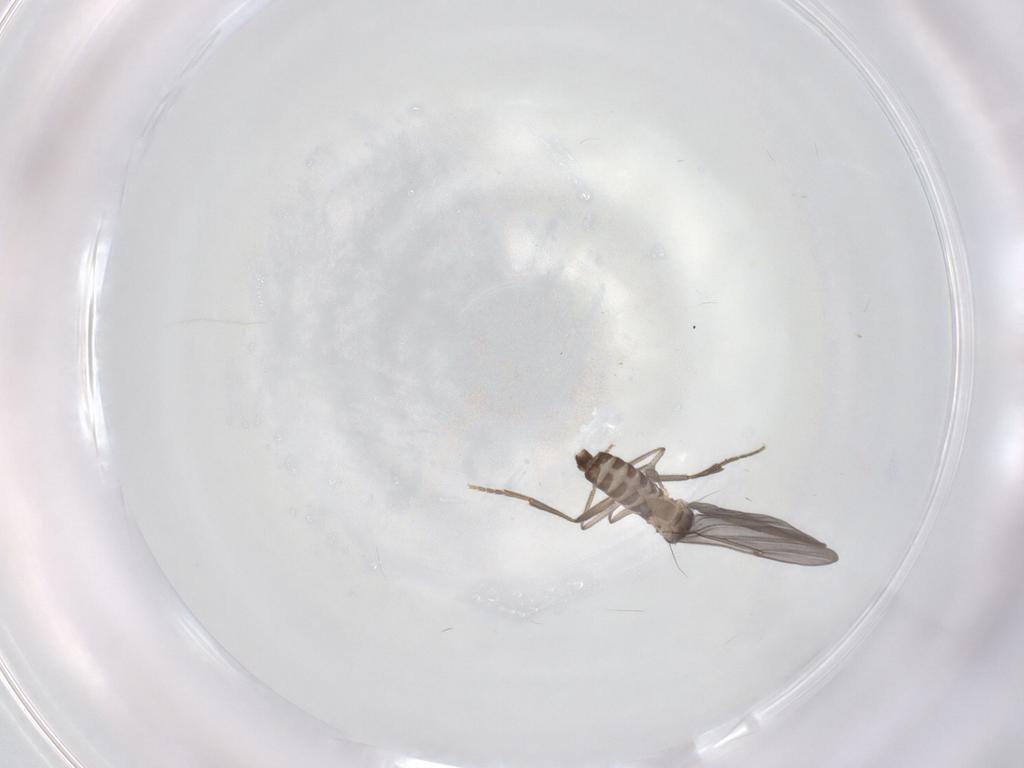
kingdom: Animalia
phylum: Arthropoda
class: Insecta
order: Diptera
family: Phoridae
